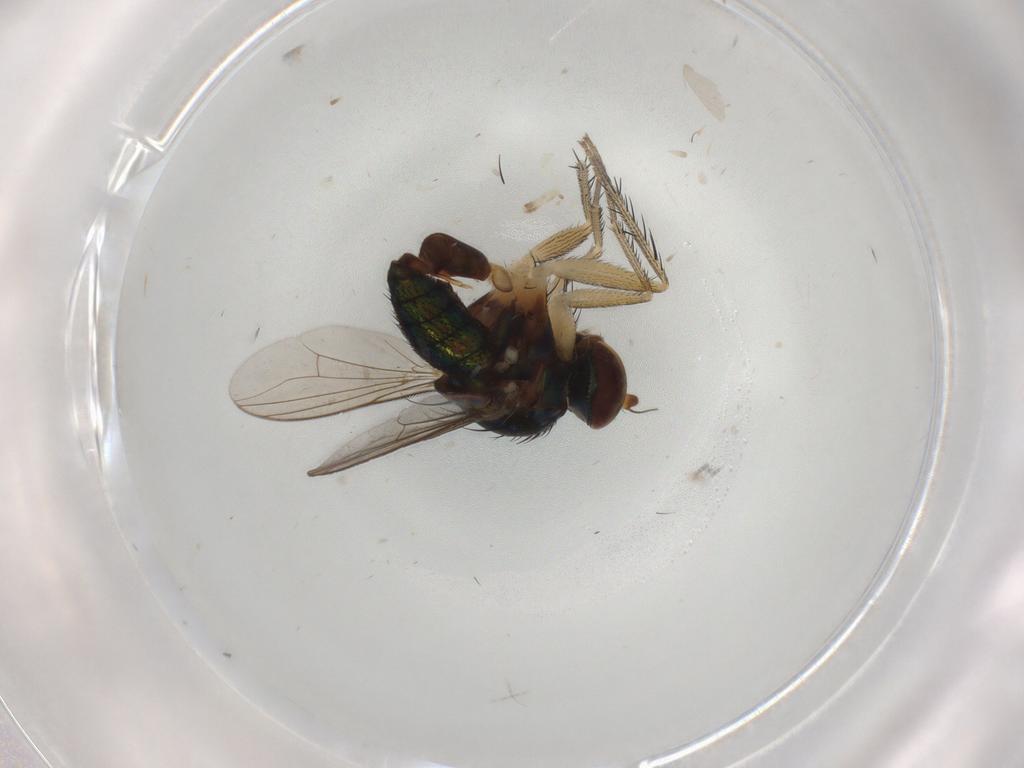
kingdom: Animalia
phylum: Arthropoda
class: Insecta
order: Diptera
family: Dolichopodidae
